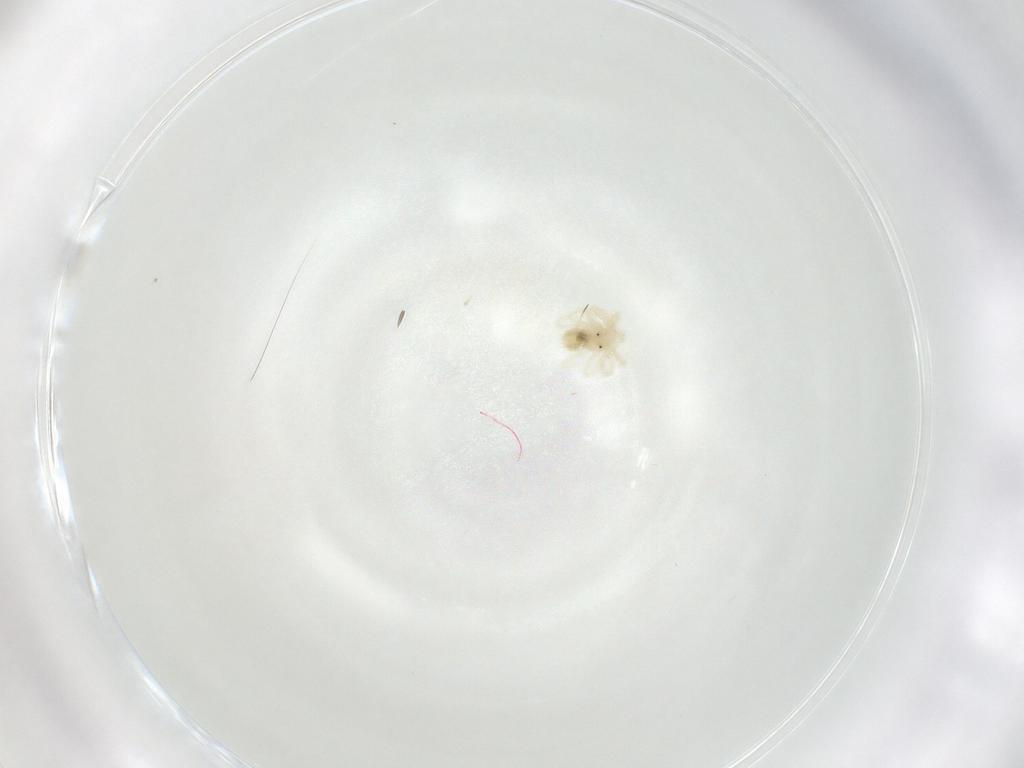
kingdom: Animalia
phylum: Arthropoda
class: Arachnida
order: Trombidiformes
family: Anystidae
